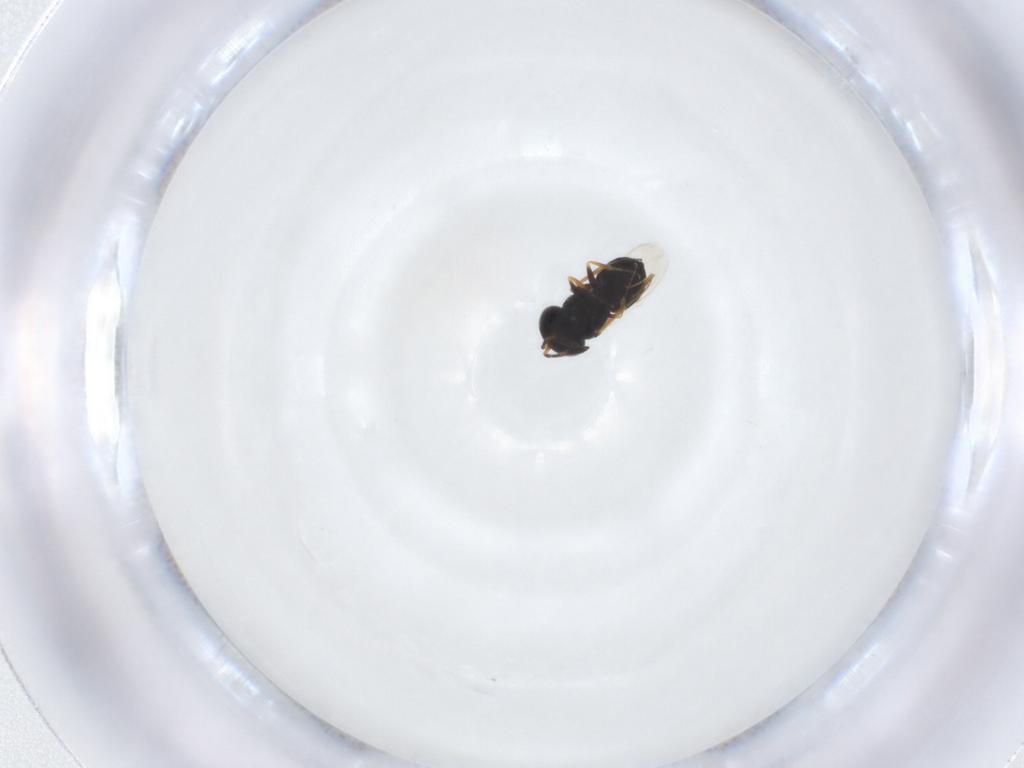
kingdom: Animalia
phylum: Arthropoda
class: Insecta
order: Hymenoptera
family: Scelionidae
